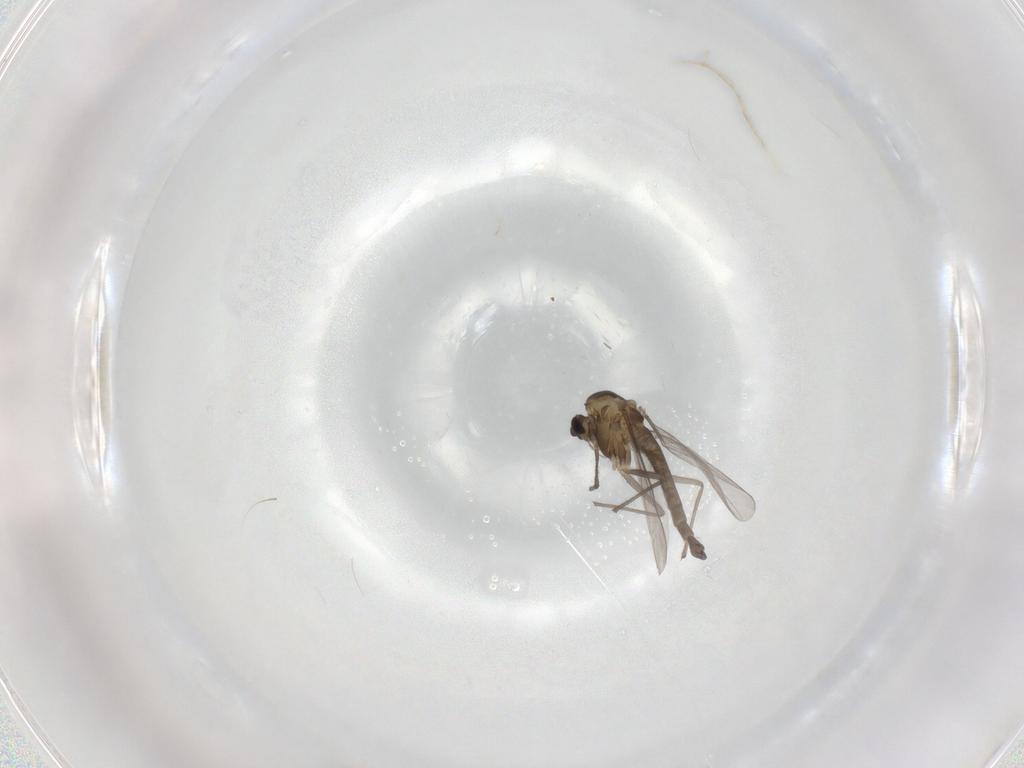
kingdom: Animalia
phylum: Arthropoda
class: Insecta
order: Diptera
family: Chironomidae
